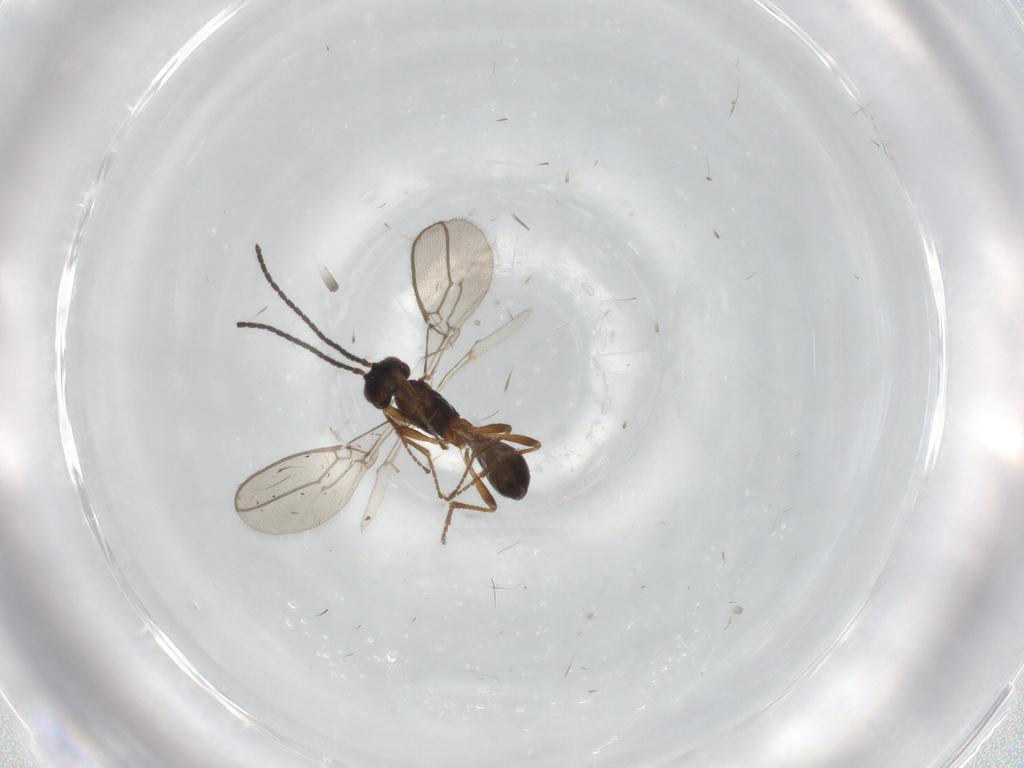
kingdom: Animalia
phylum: Arthropoda
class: Insecta
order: Hymenoptera
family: Braconidae
